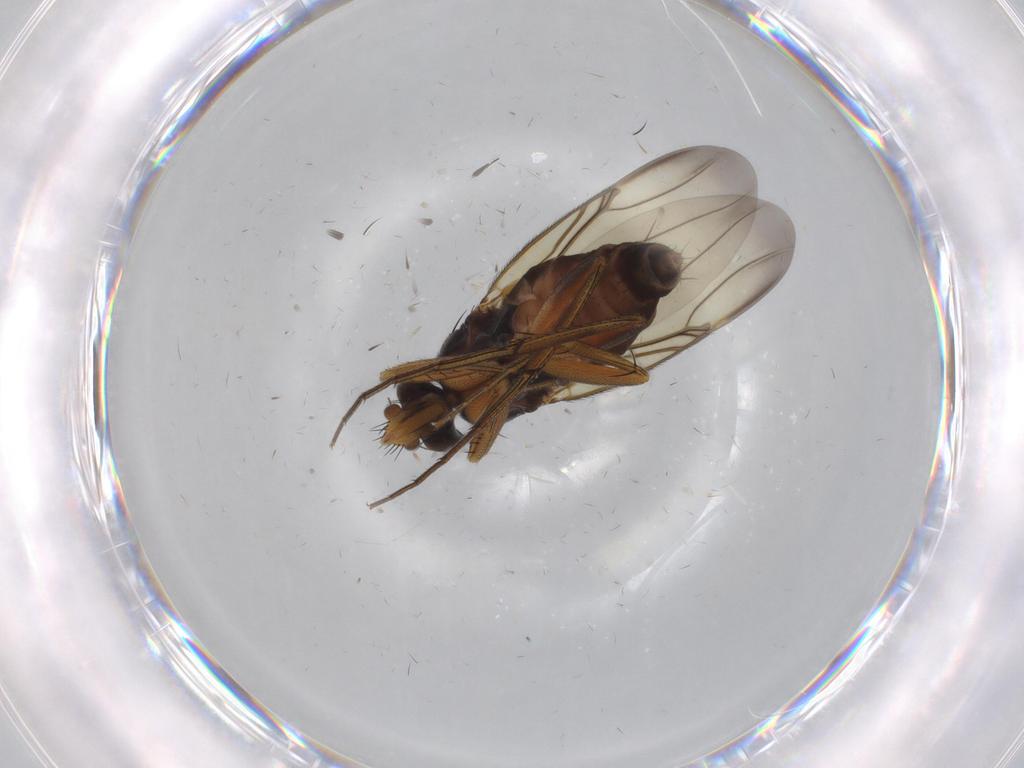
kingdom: Animalia
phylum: Arthropoda
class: Insecta
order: Diptera
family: Phoridae
